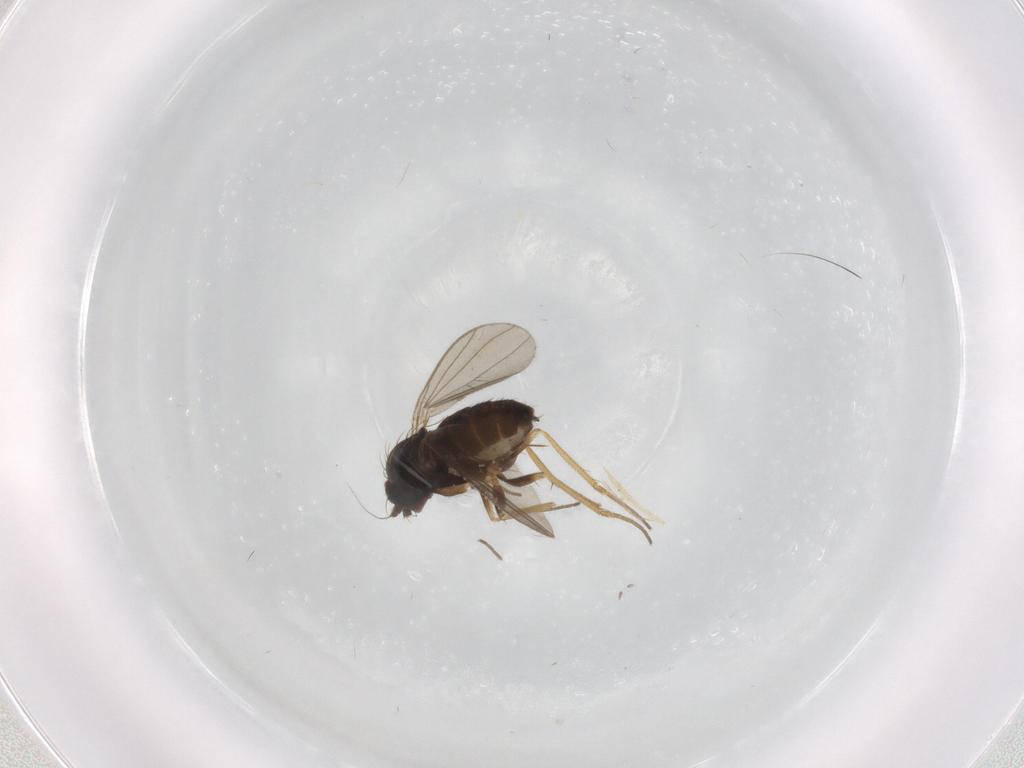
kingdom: Animalia
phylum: Arthropoda
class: Insecta
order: Diptera
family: Dolichopodidae
